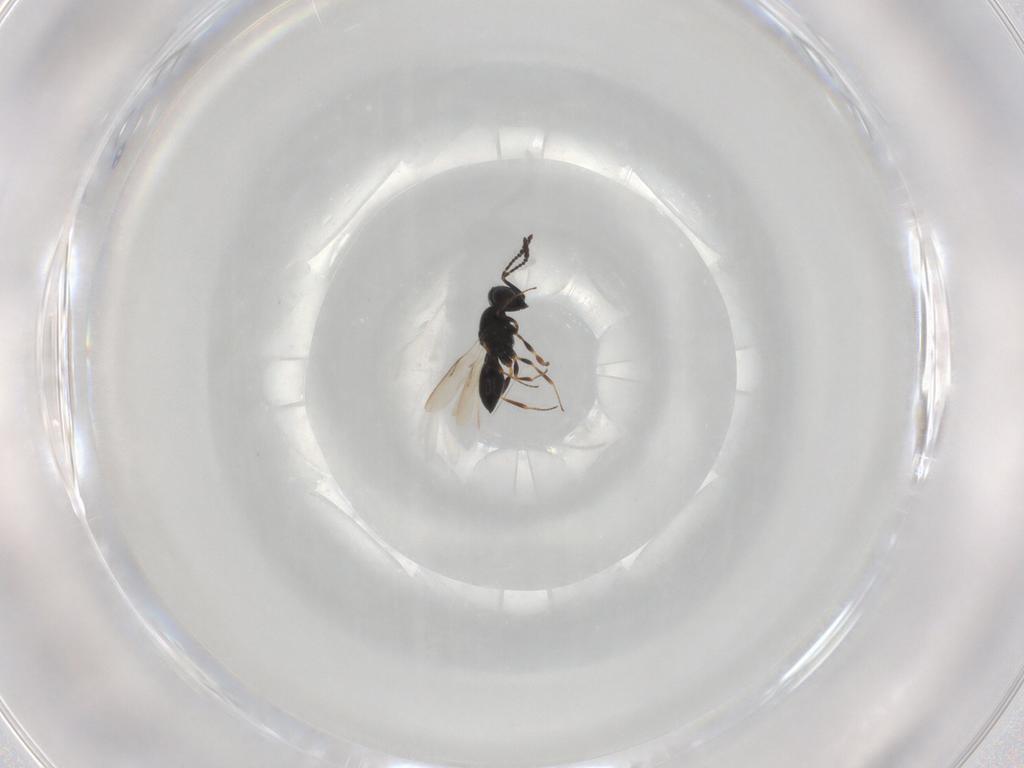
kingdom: Animalia
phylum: Arthropoda
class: Insecta
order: Hymenoptera
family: Scelionidae
